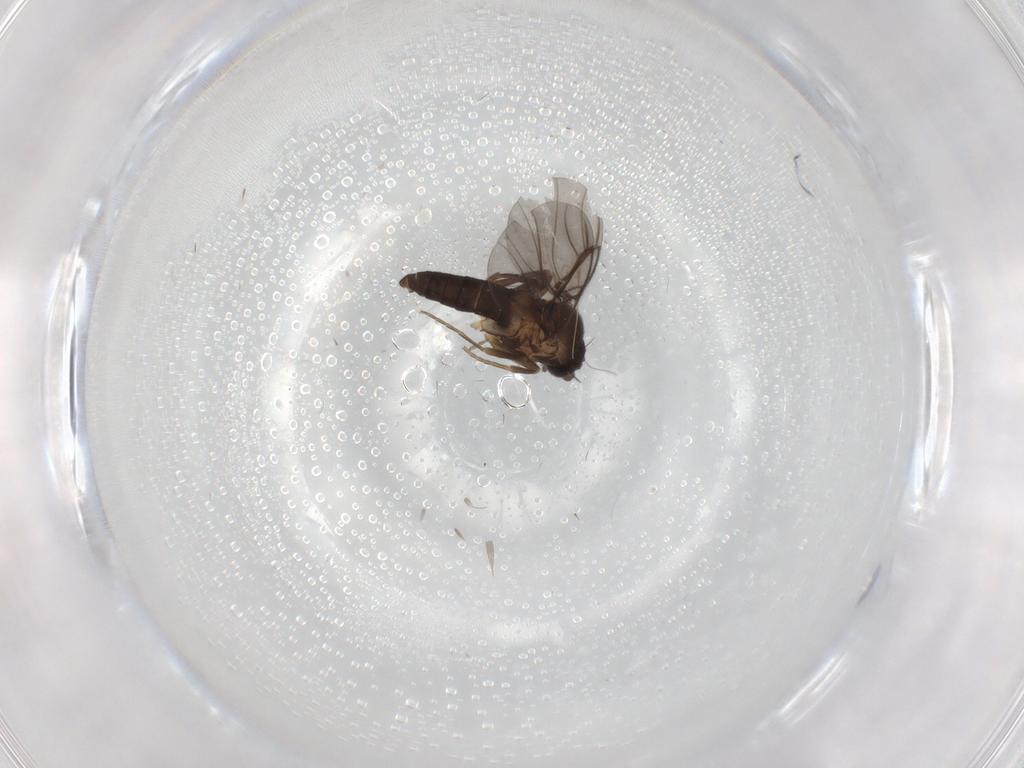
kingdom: Animalia
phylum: Arthropoda
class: Insecta
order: Diptera
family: Phoridae
